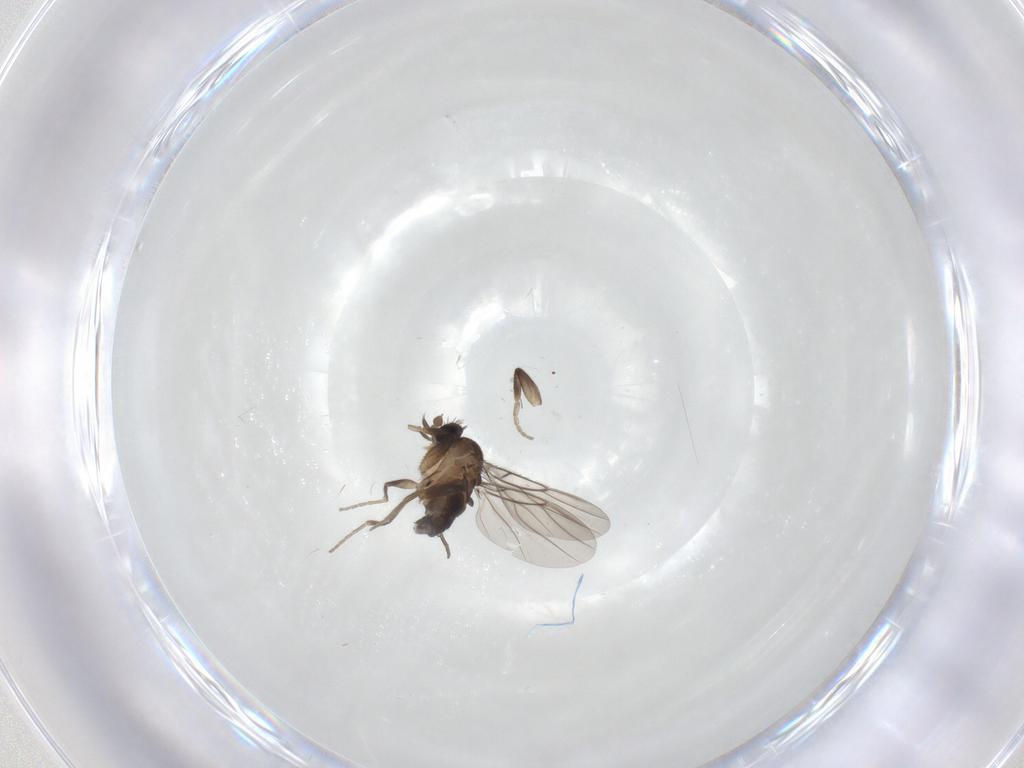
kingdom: Animalia
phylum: Arthropoda
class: Insecta
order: Diptera
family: Phoridae
